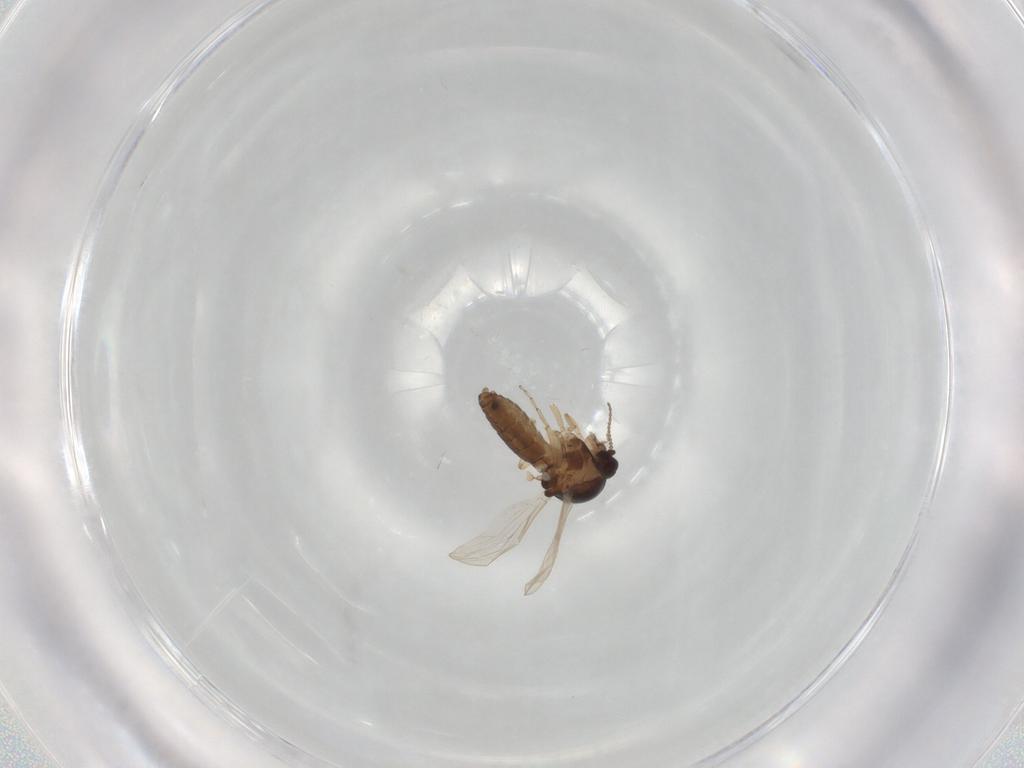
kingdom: Animalia
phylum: Arthropoda
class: Insecta
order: Diptera
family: Ceratopogonidae
